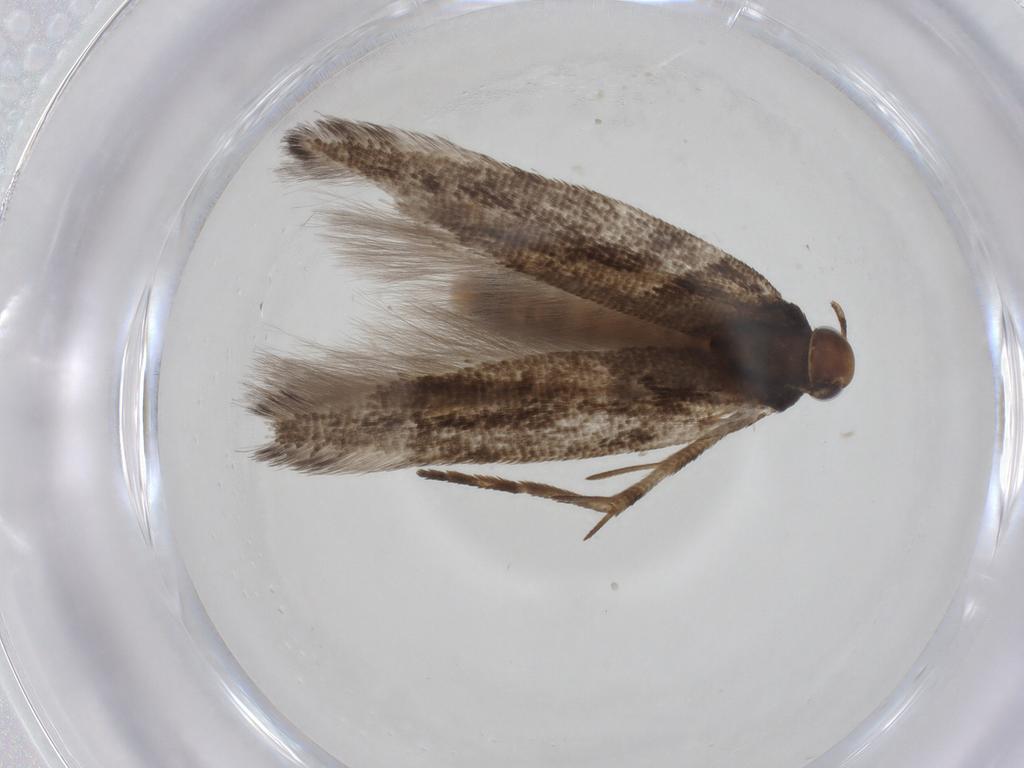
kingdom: Animalia
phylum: Arthropoda
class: Insecta
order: Lepidoptera
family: Gelechiidae
